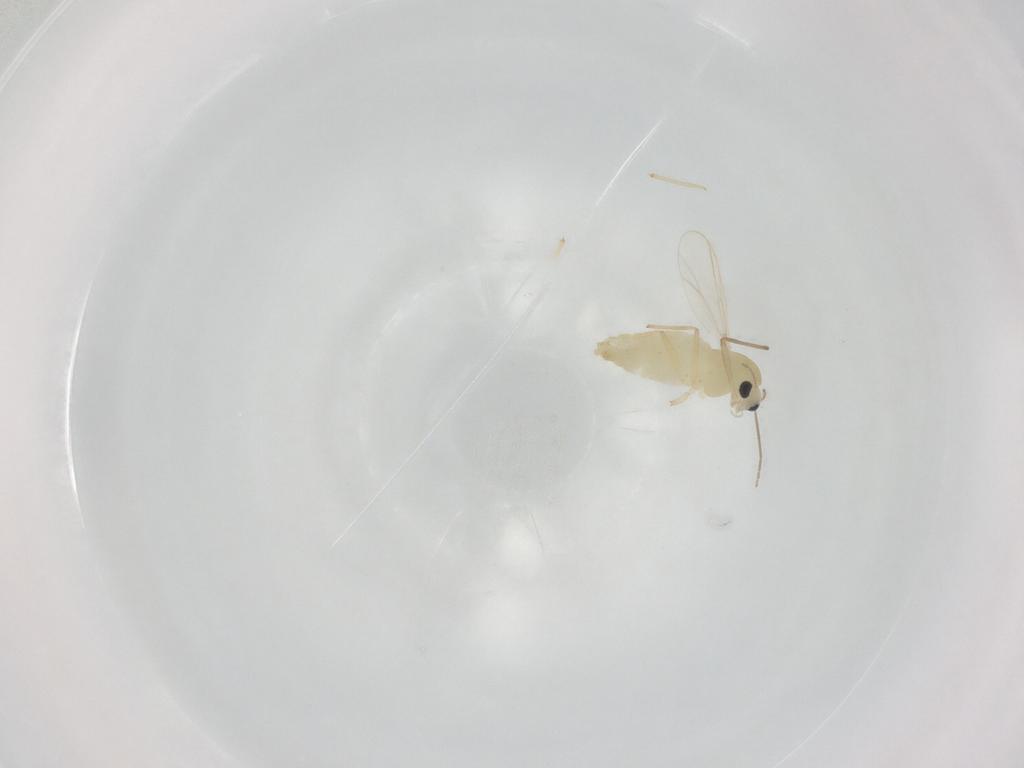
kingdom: Animalia
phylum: Arthropoda
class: Insecta
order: Diptera
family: Chironomidae
